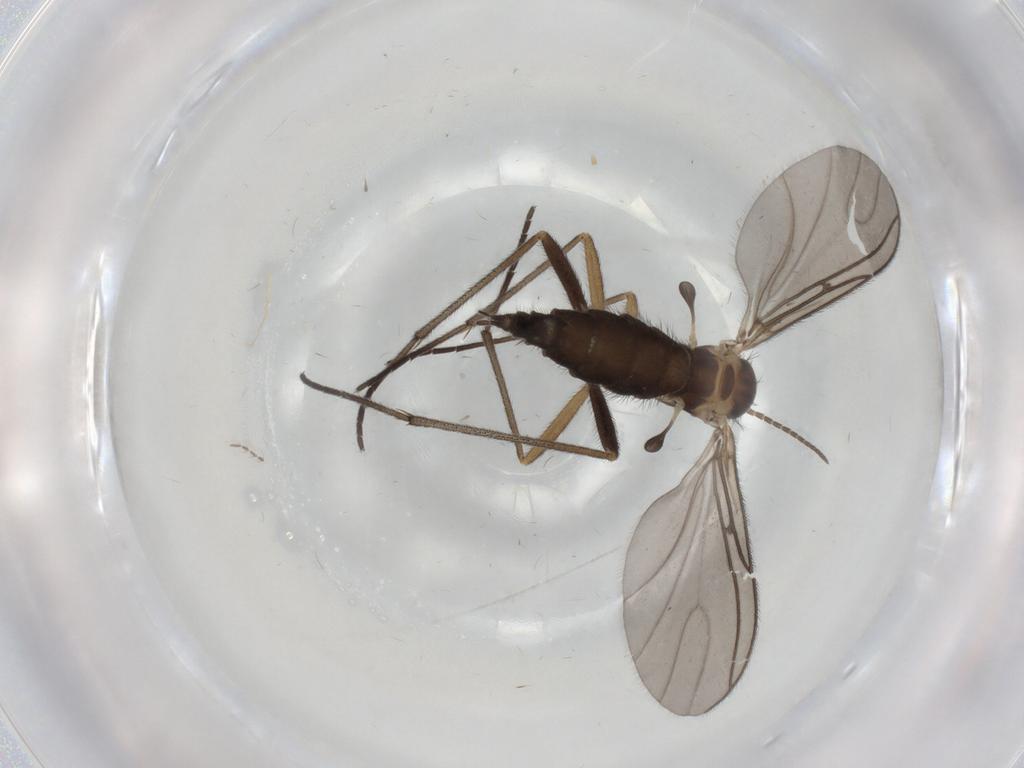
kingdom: Animalia
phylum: Arthropoda
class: Insecta
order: Diptera
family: Sciaridae
